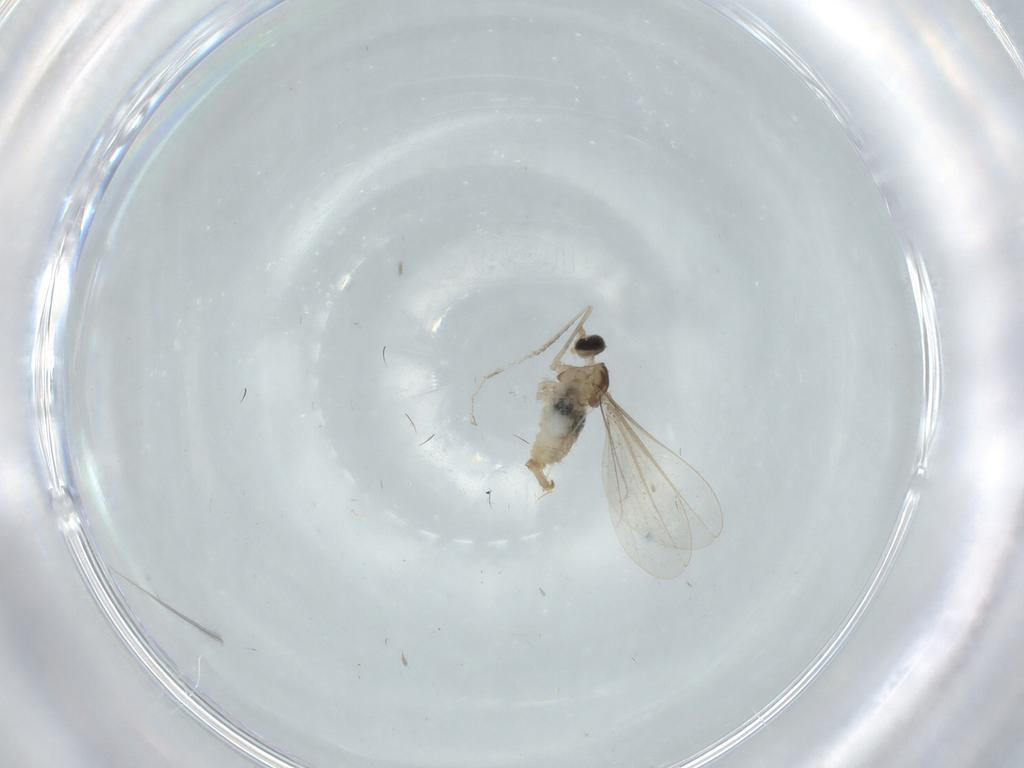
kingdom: Animalia
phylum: Arthropoda
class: Insecta
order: Diptera
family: Cecidomyiidae
